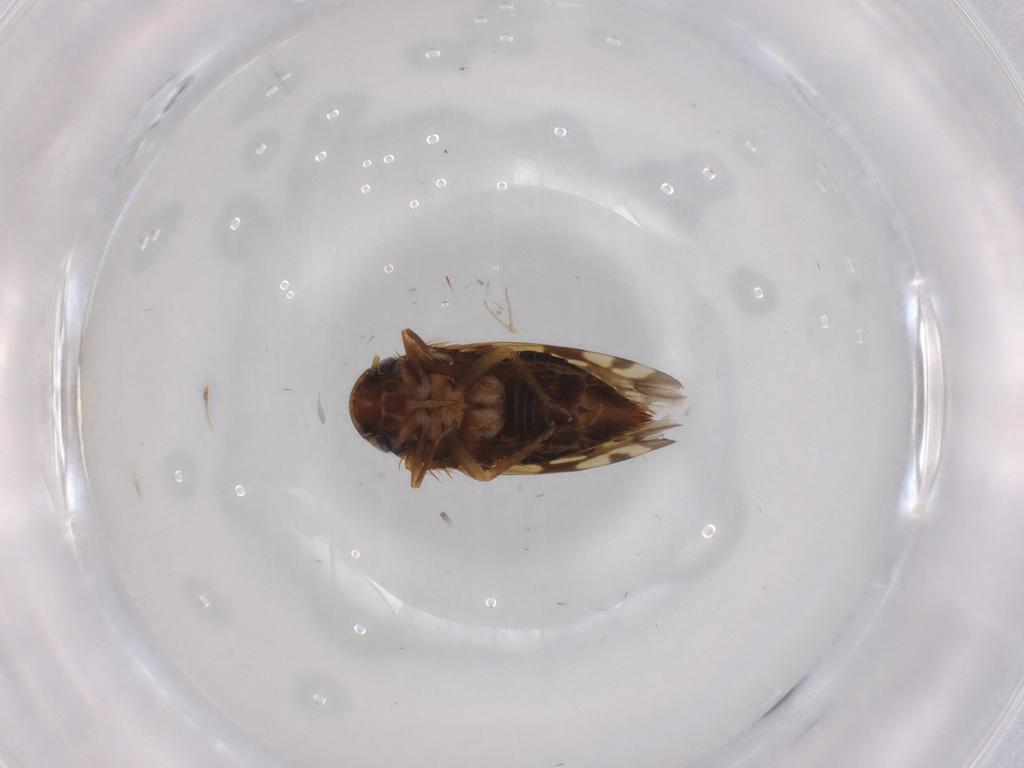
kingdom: Animalia
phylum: Arthropoda
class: Insecta
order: Hemiptera
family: Cicadellidae
